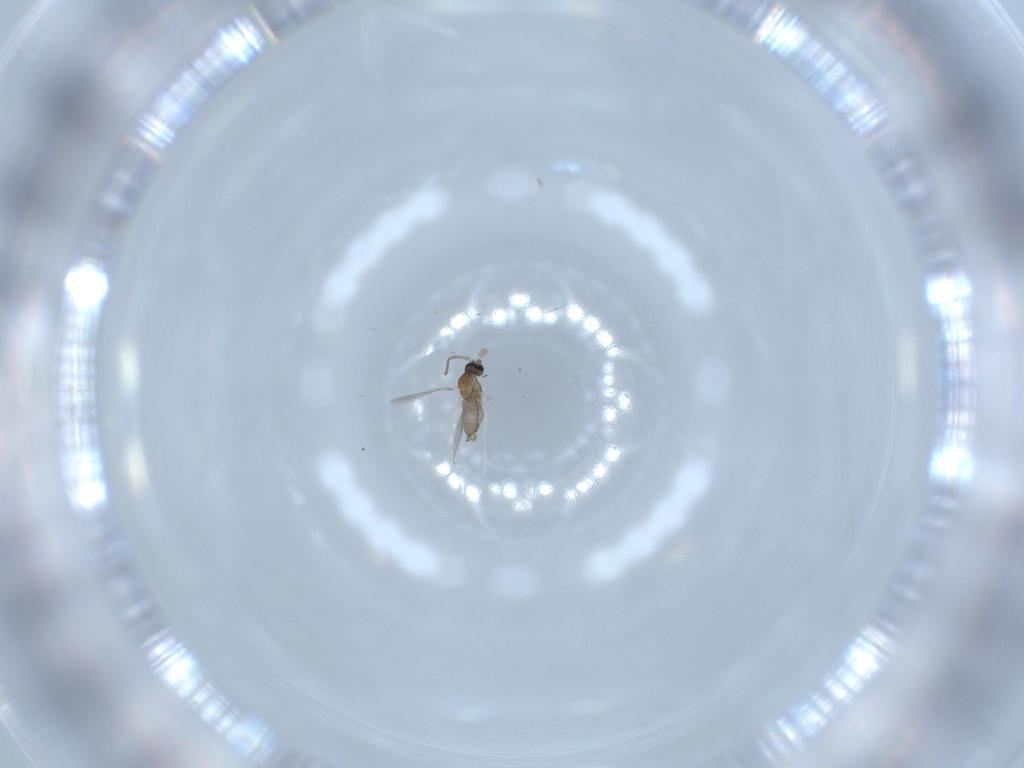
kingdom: Animalia
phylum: Arthropoda
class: Insecta
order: Diptera
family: Cecidomyiidae
